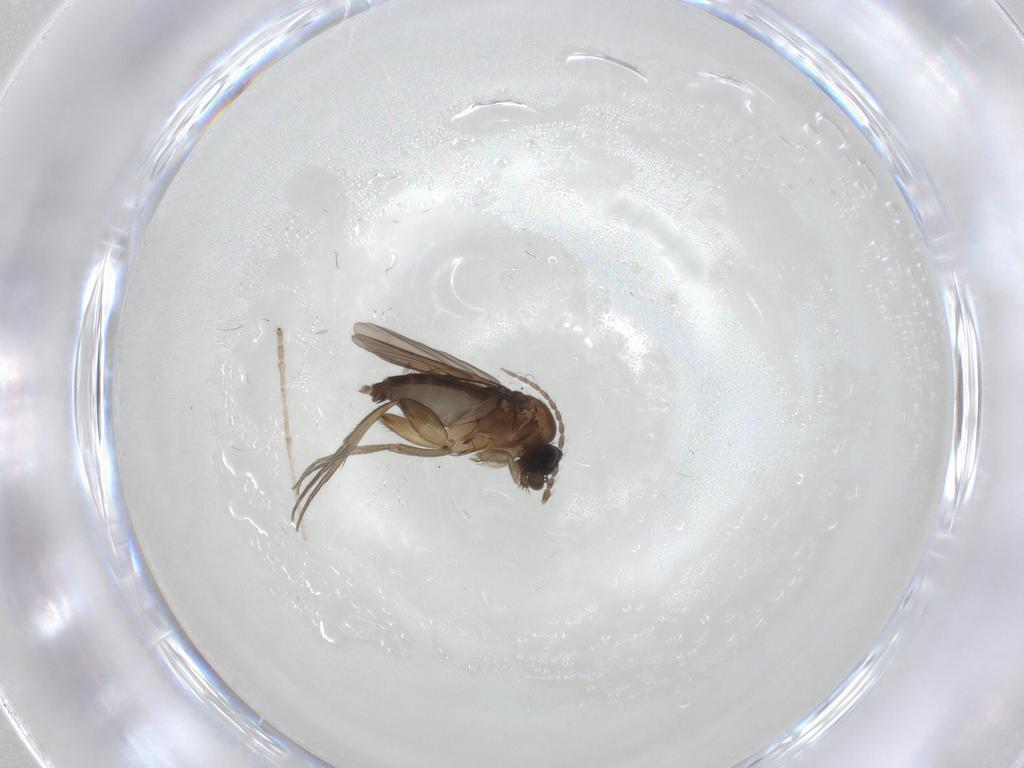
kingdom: Animalia
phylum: Arthropoda
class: Insecta
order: Diptera
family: Phoridae
